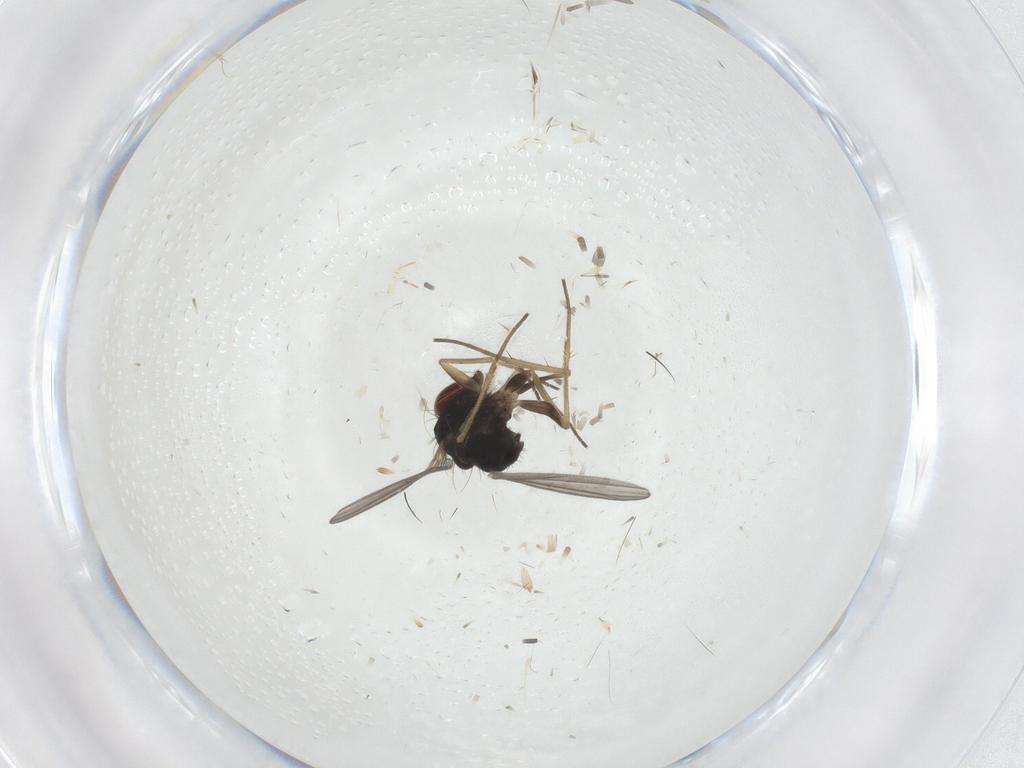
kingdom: Animalia
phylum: Arthropoda
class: Insecta
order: Diptera
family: Dolichopodidae
